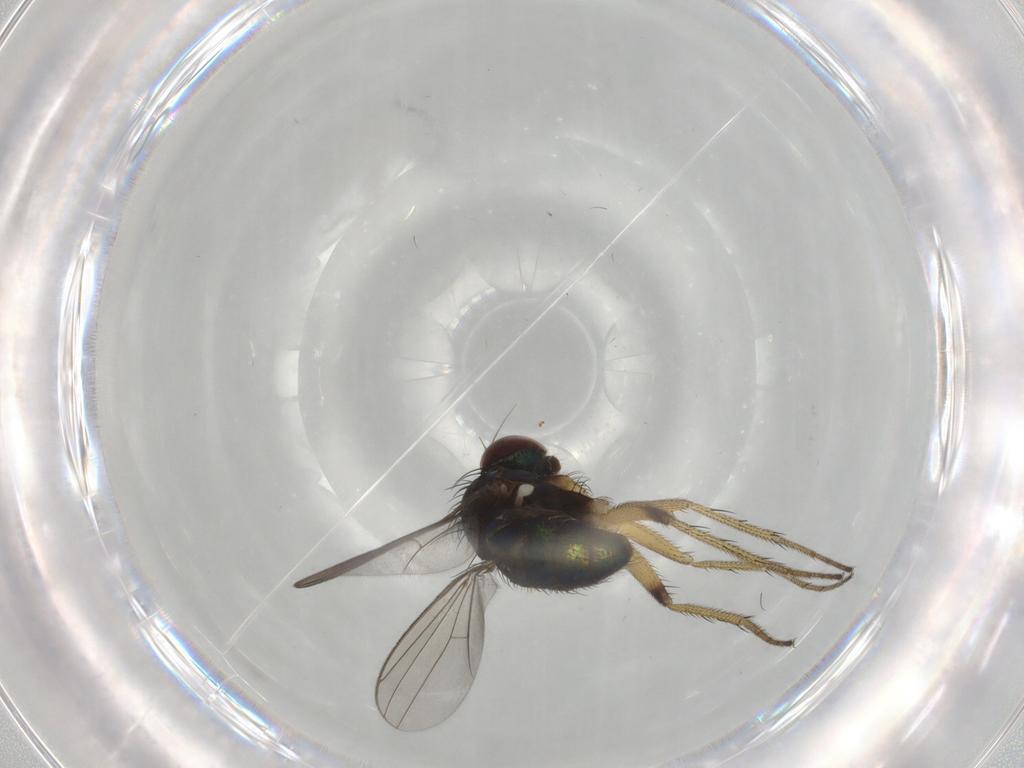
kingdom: Animalia
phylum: Arthropoda
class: Insecta
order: Diptera
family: Dolichopodidae
